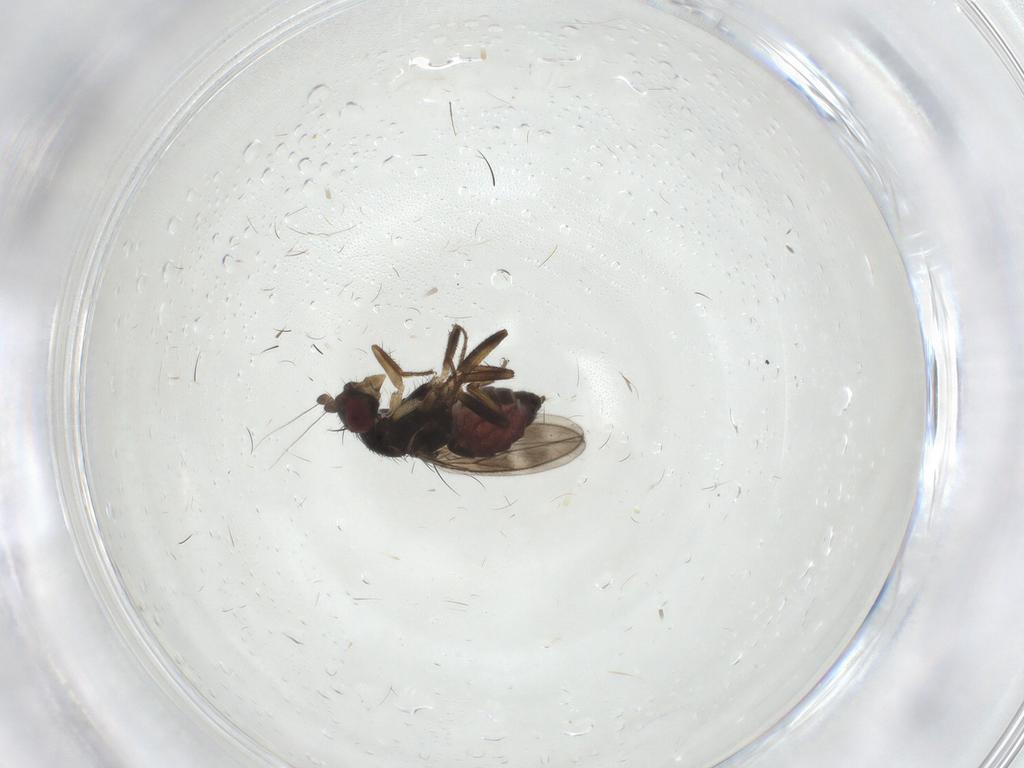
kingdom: Animalia
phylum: Arthropoda
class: Insecta
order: Diptera
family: Sphaeroceridae
